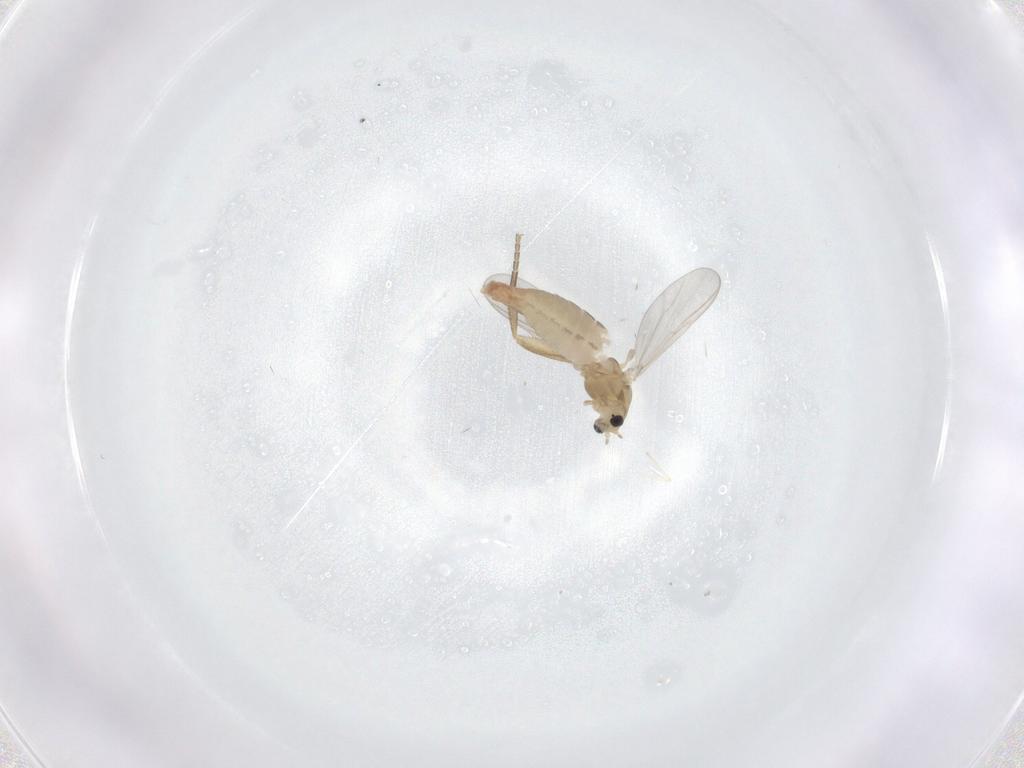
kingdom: Animalia
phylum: Arthropoda
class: Insecta
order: Diptera
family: Chironomidae
